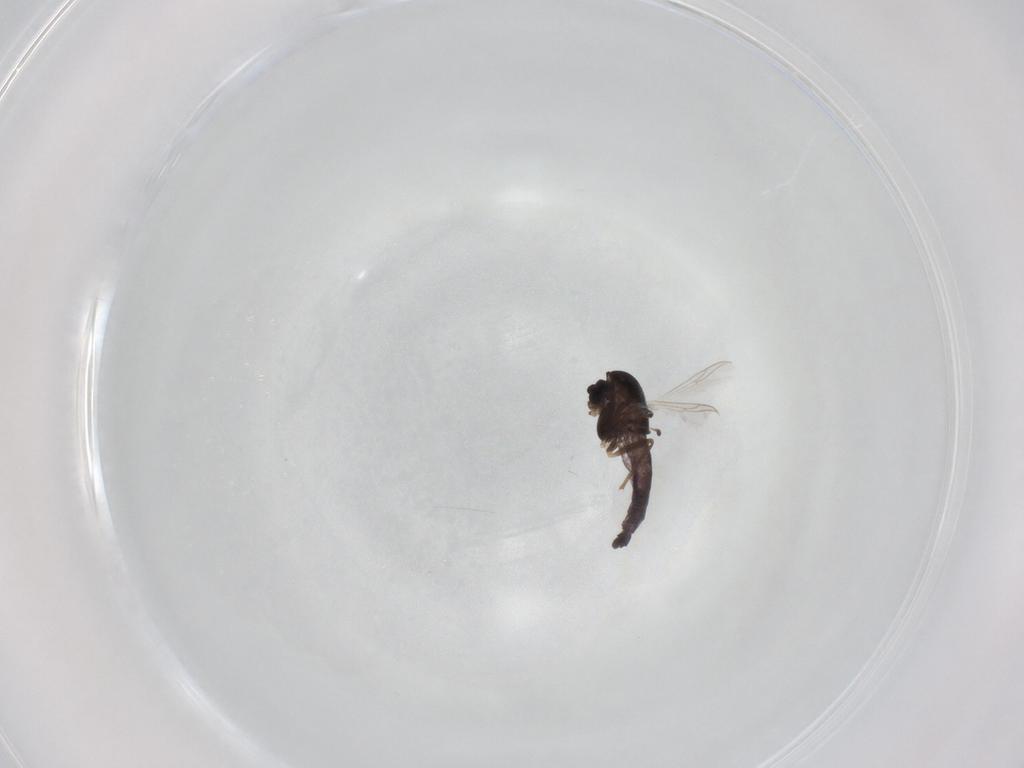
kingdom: Animalia
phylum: Arthropoda
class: Insecta
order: Diptera
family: Chironomidae
